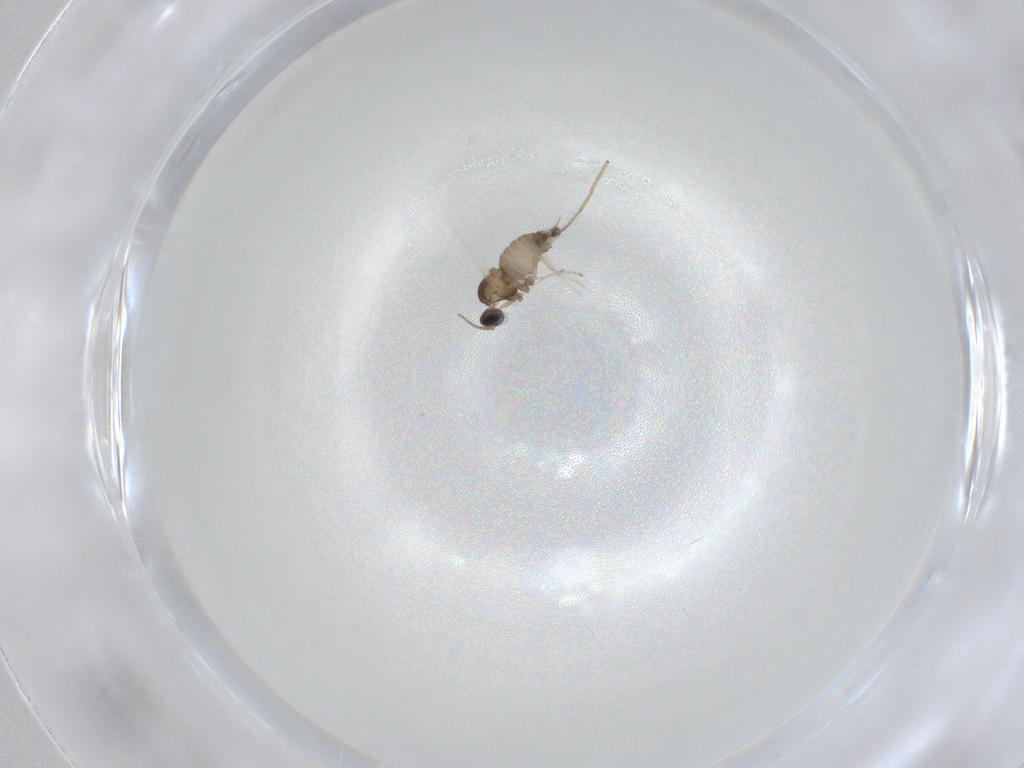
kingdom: Animalia
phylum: Arthropoda
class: Insecta
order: Diptera
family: Cecidomyiidae
